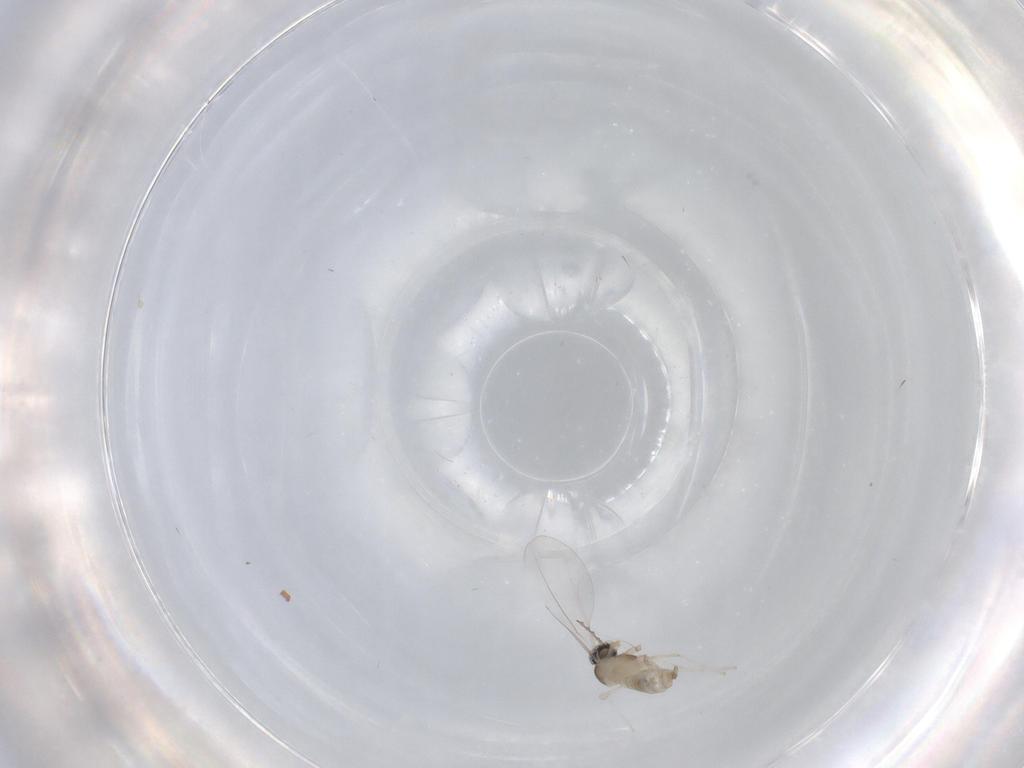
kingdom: Animalia
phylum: Arthropoda
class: Insecta
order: Diptera
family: Cecidomyiidae
